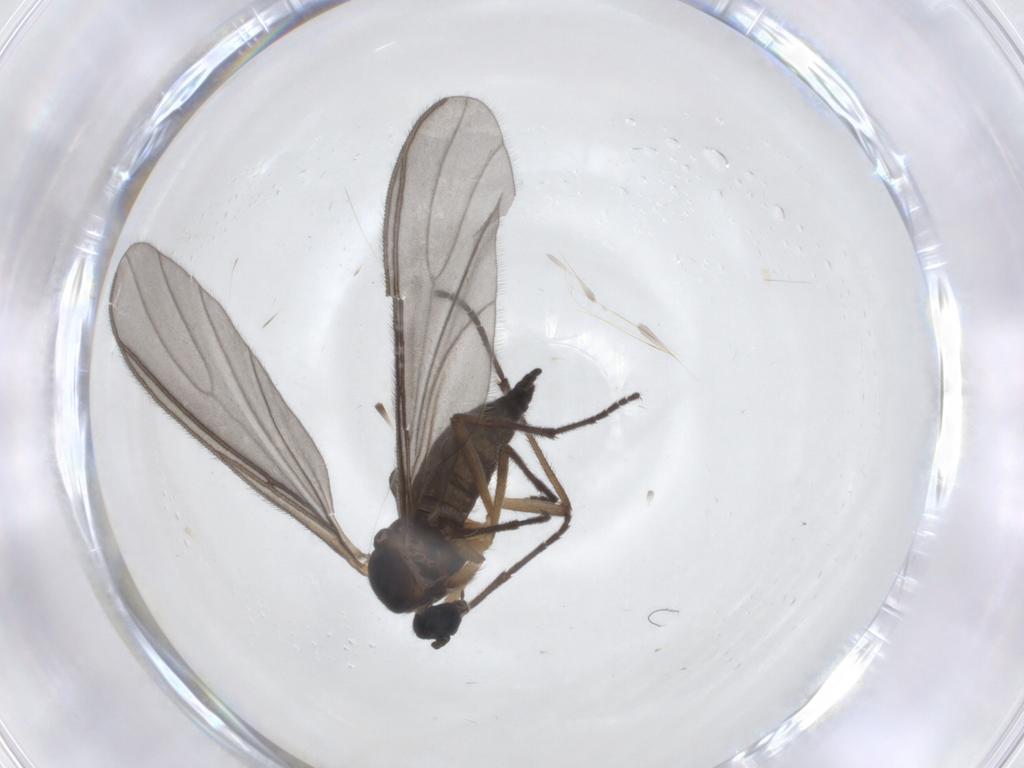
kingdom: Animalia
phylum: Arthropoda
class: Insecta
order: Diptera
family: Sciaridae
